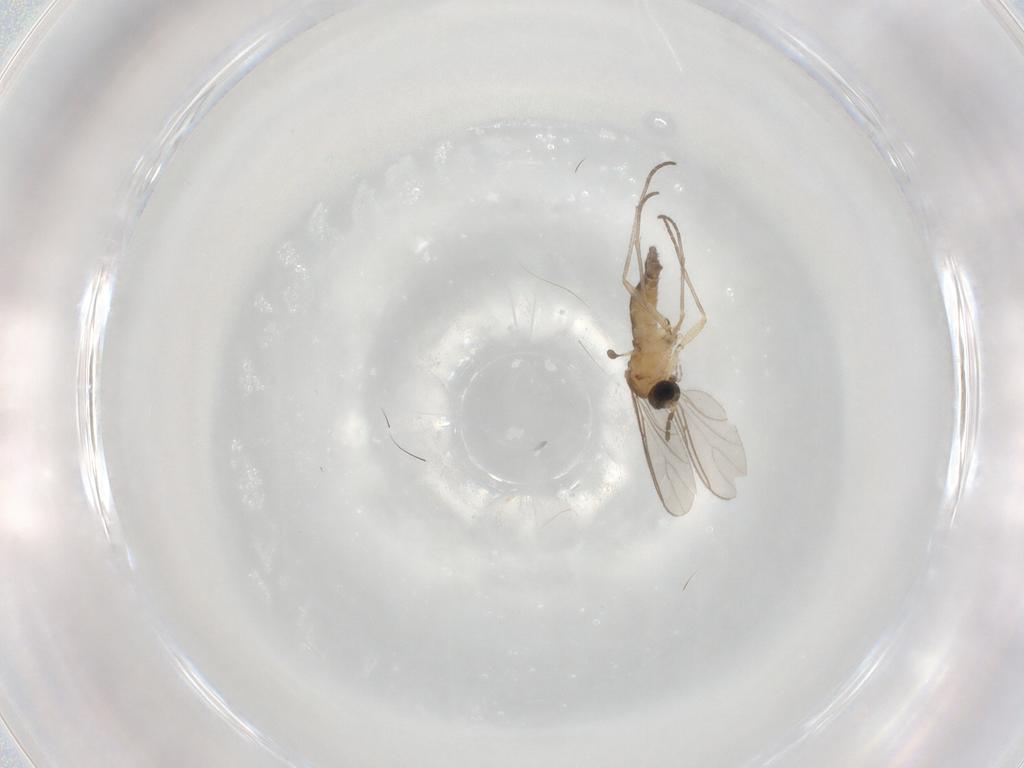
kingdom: Animalia
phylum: Arthropoda
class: Insecta
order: Diptera
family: Sciaridae
